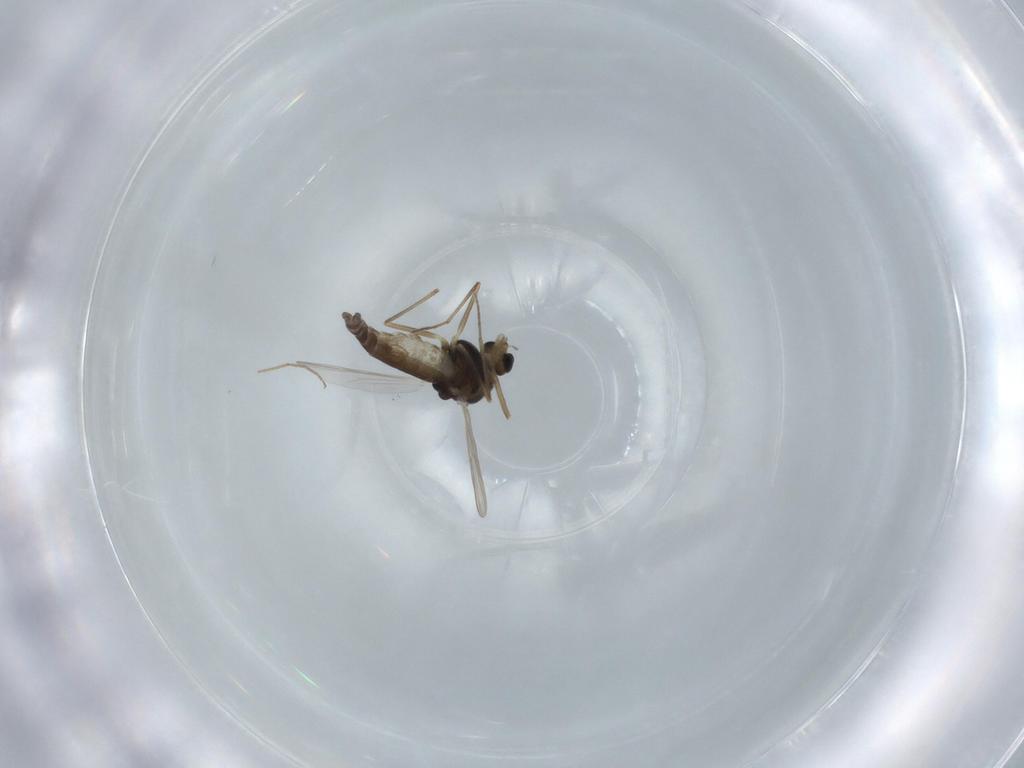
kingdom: Animalia
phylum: Arthropoda
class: Insecta
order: Diptera
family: Chironomidae
